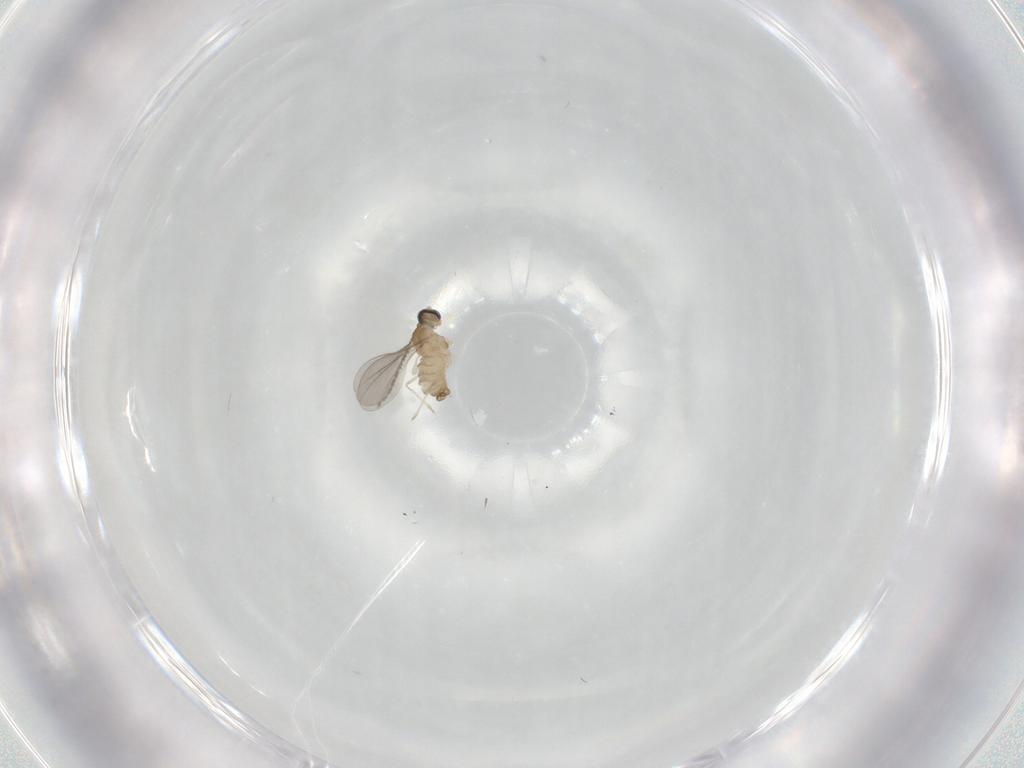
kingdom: Animalia
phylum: Arthropoda
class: Insecta
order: Diptera
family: Cecidomyiidae
